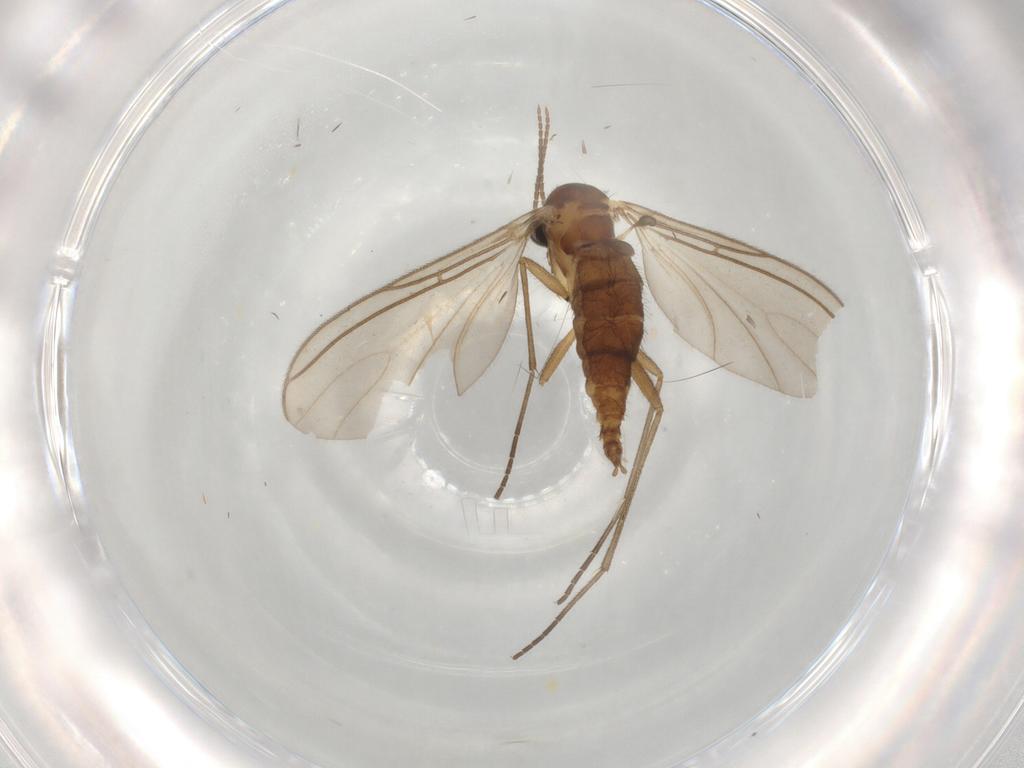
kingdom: Animalia
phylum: Arthropoda
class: Insecta
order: Diptera
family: Sciaridae
